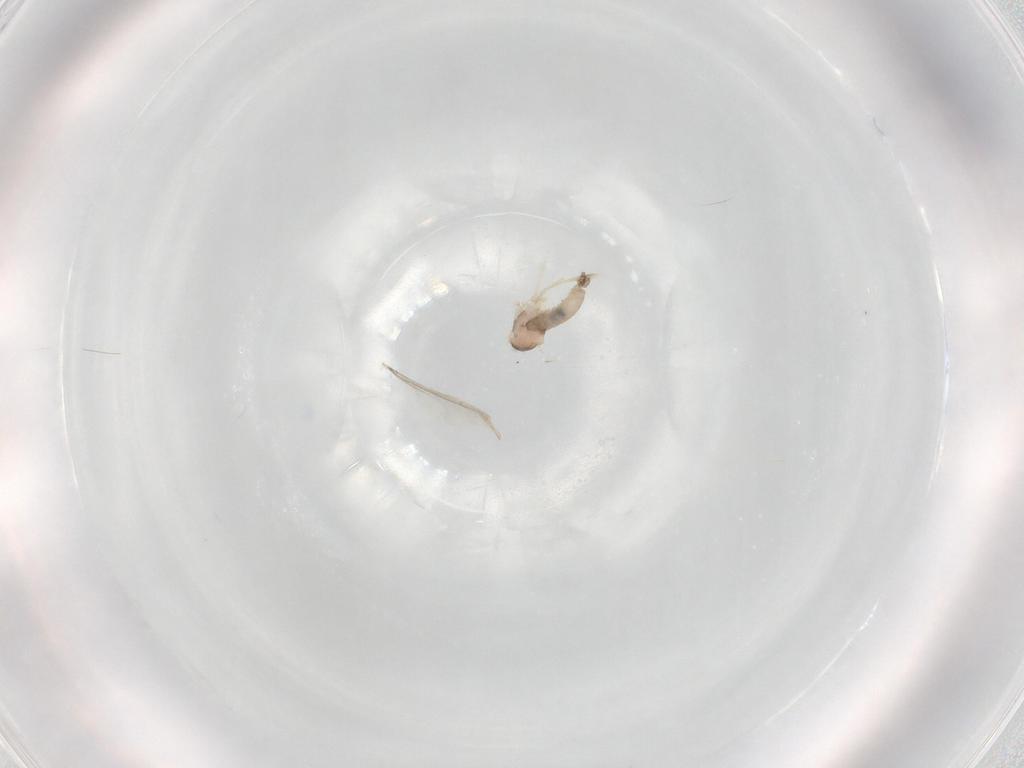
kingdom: Animalia
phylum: Arthropoda
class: Insecta
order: Diptera
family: Cecidomyiidae
